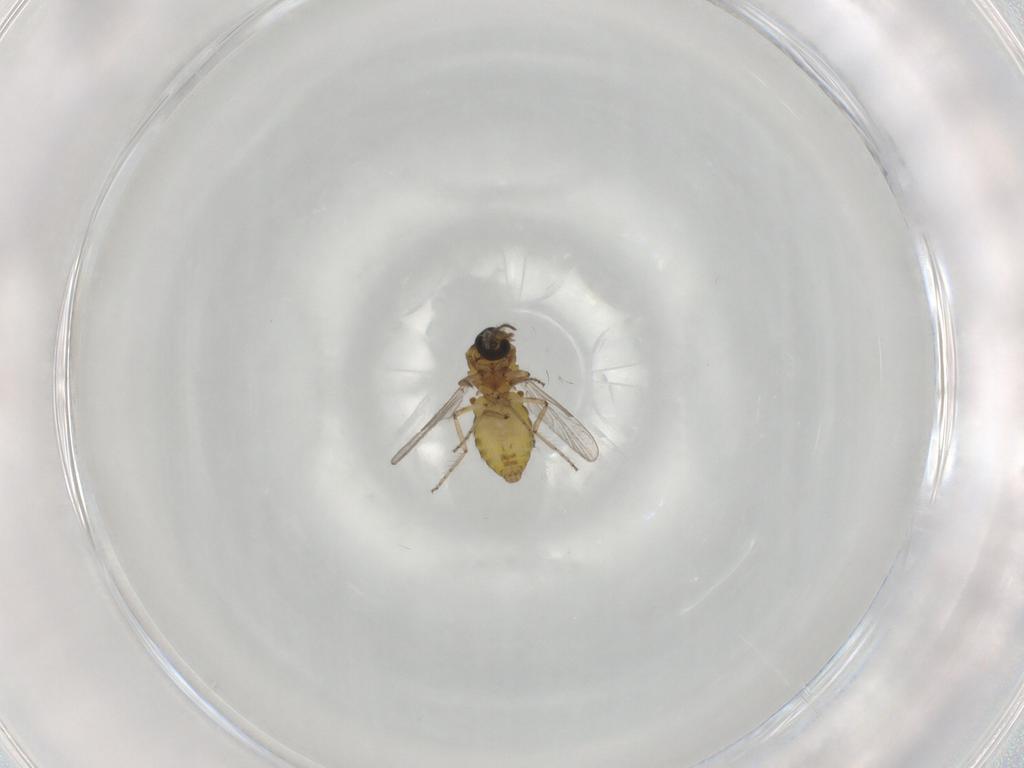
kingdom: Animalia
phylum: Arthropoda
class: Insecta
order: Diptera
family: Ceratopogonidae
